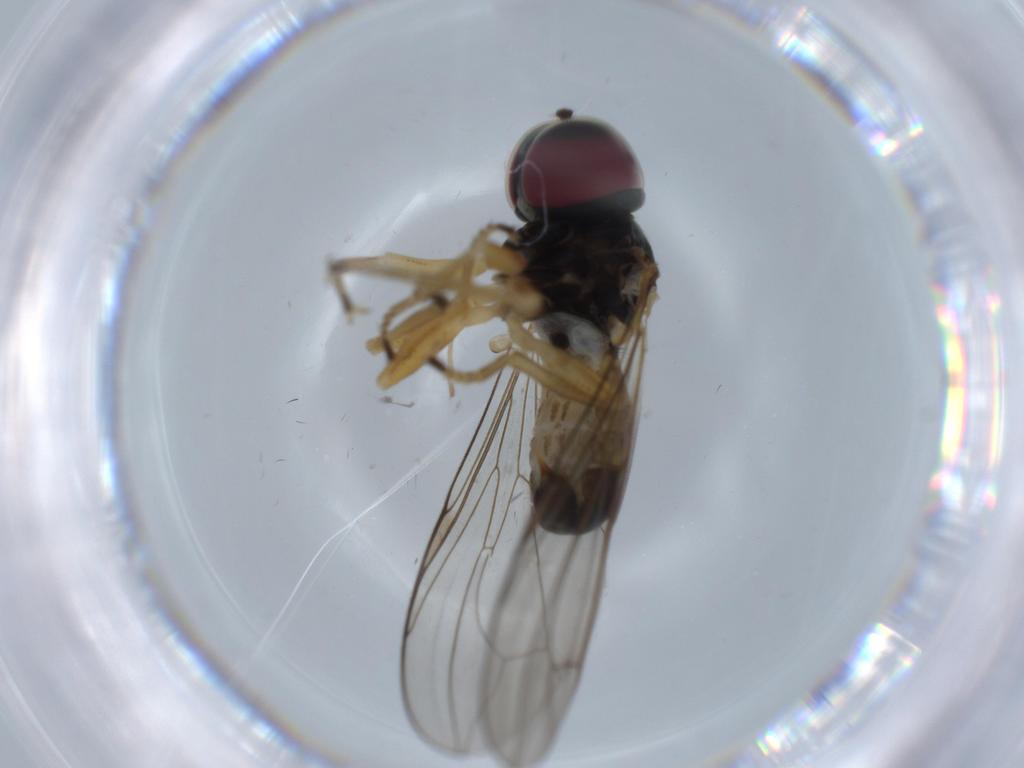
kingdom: Animalia
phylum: Arthropoda
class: Insecta
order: Diptera
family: Pipunculidae
